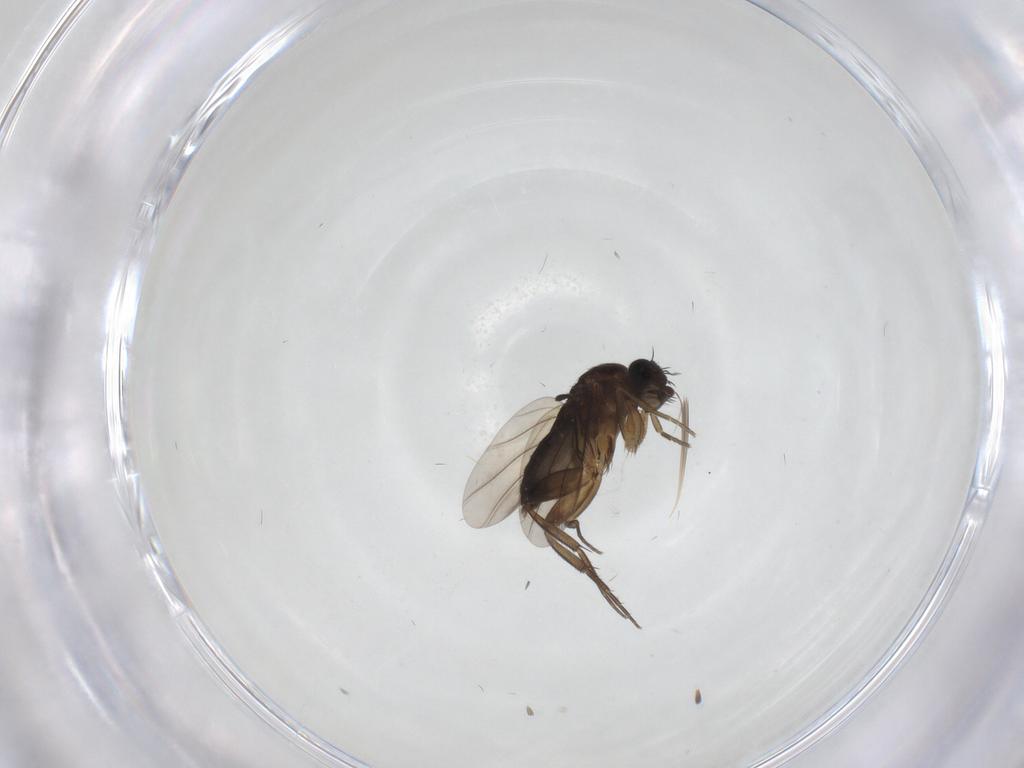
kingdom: Animalia
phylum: Arthropoda
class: Insecta
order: Diptera
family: Phoridae
